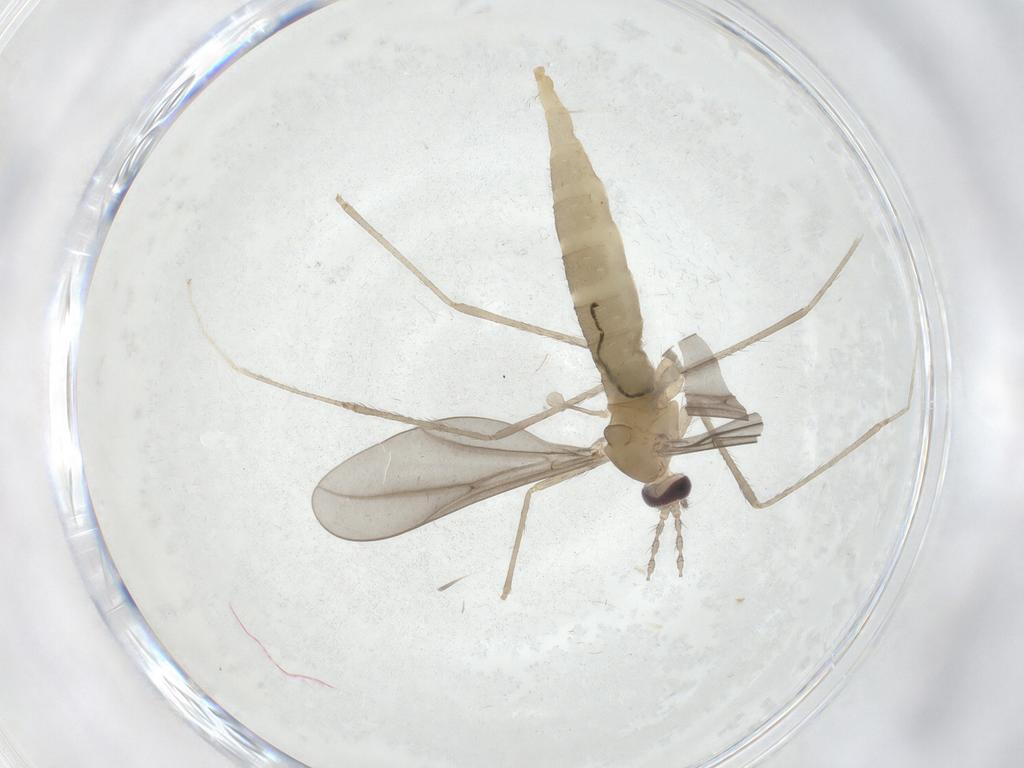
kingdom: Animalia
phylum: Arthropoda
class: Insecta
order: Diptera
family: Cecidomyiidae
